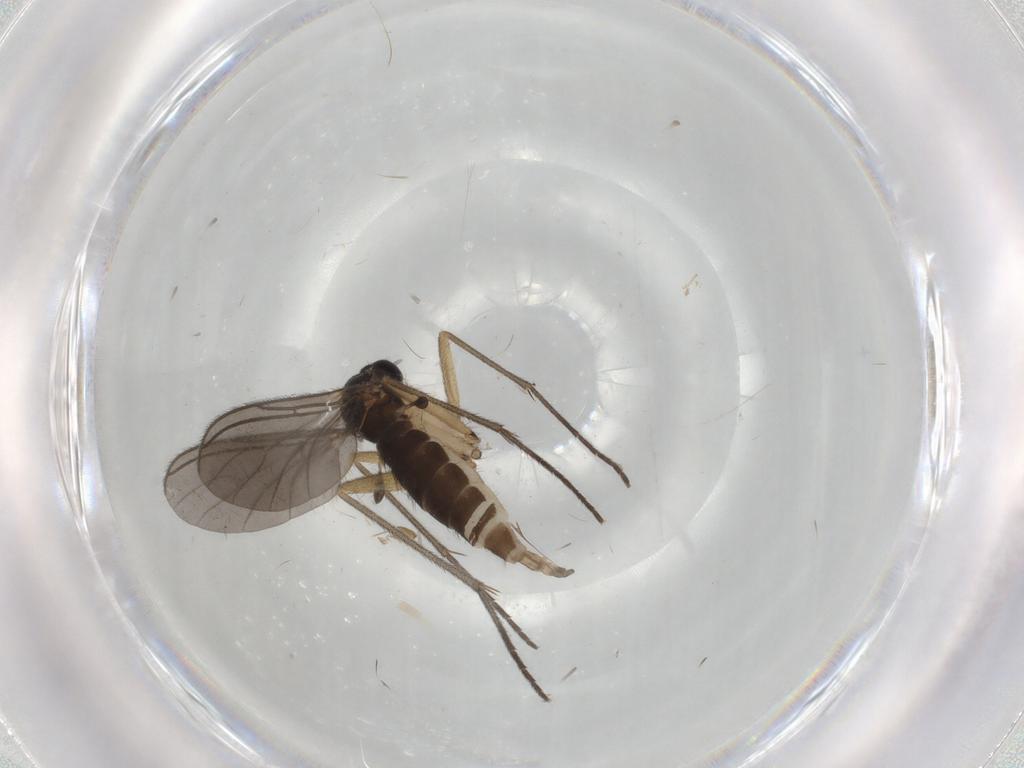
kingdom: Animalia
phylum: Arthropoda
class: Insecta
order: Diptera
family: Sciaridae
